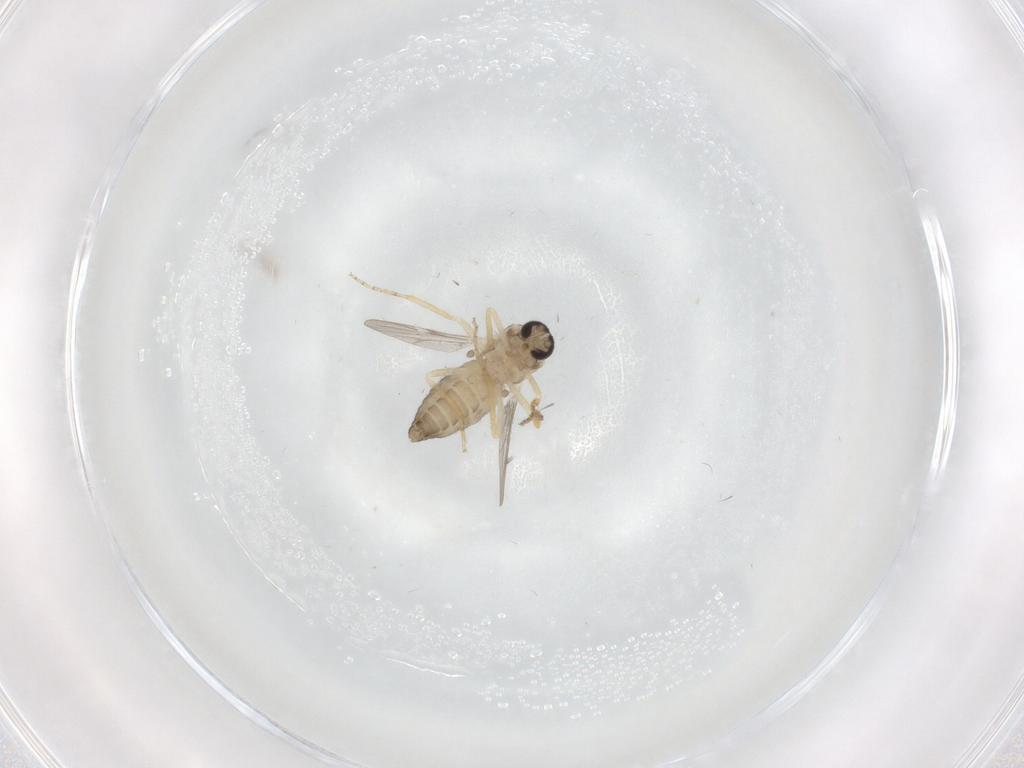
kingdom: Animalia
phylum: Arthropoda
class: Insecta
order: Diptera
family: Ceratopogonidae
